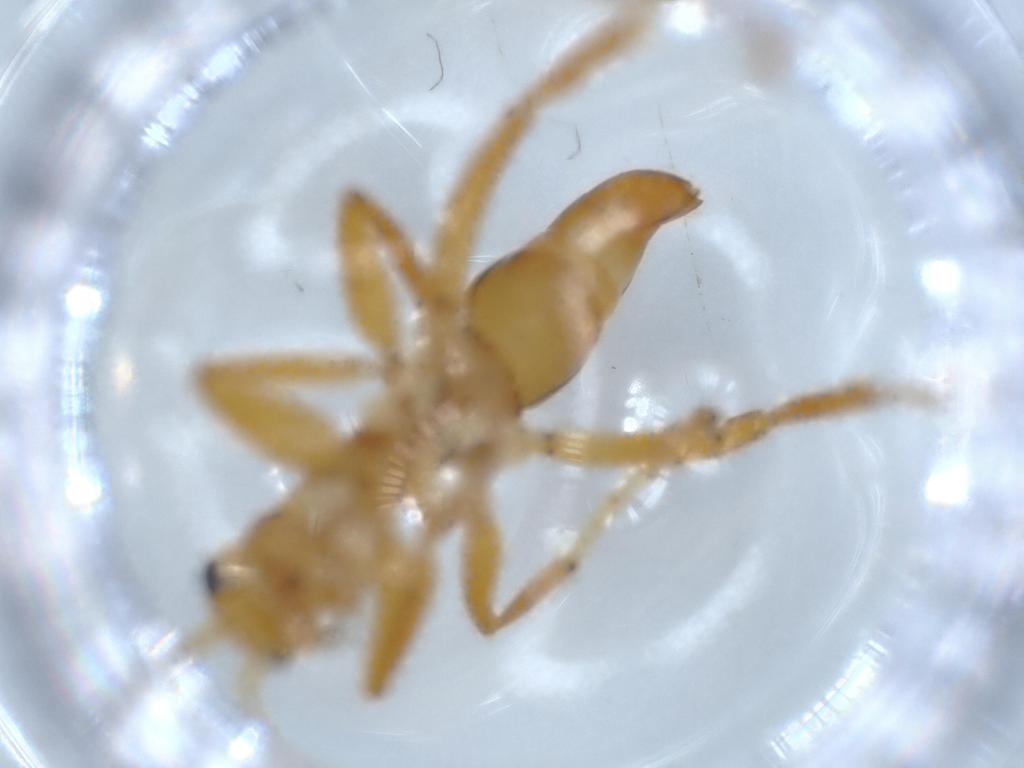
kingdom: Animalia
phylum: Arthropoda
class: Insecta
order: Hymenoptera
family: Rhopalosomatidae
